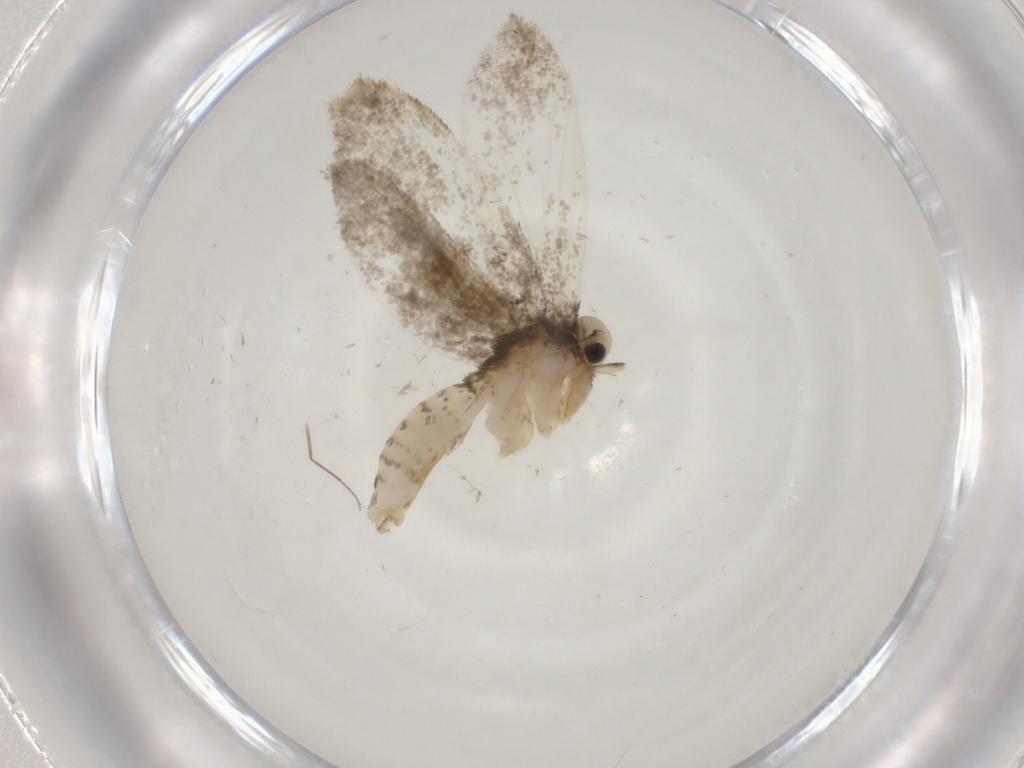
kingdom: Animalia
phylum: Arthropoda
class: Insecta
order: Lepidoptera
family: Psychidae
